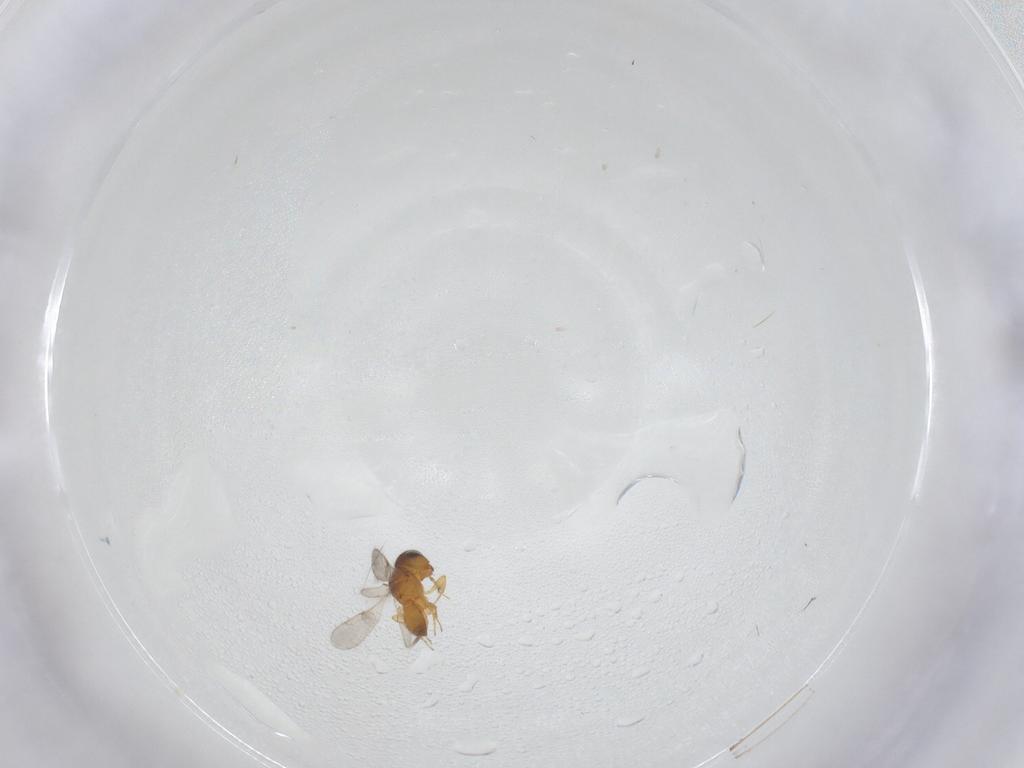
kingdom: Animalia
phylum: Arthropoda
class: Insecta
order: Hymenoptera
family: Scelionidae
